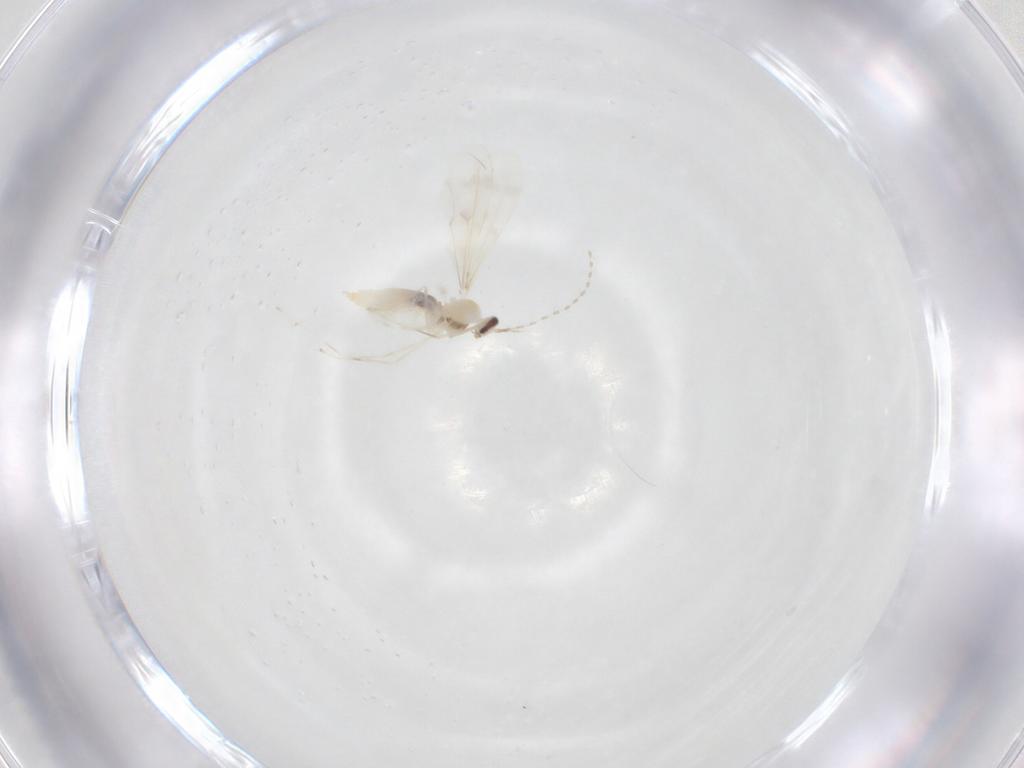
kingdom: Animalia
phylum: Arthropoda
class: Insecta
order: Diptera
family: Cecidomyiidae
